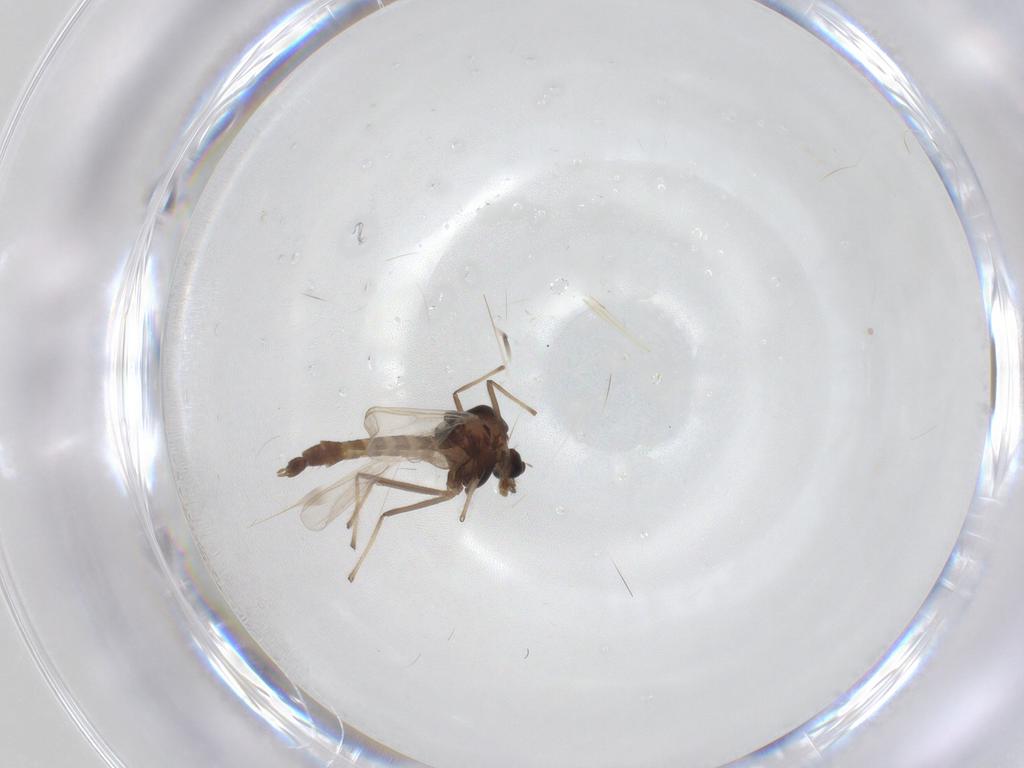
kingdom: Animalia
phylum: Arthropoda
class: Insecta
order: Diptera
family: Chironomidae
